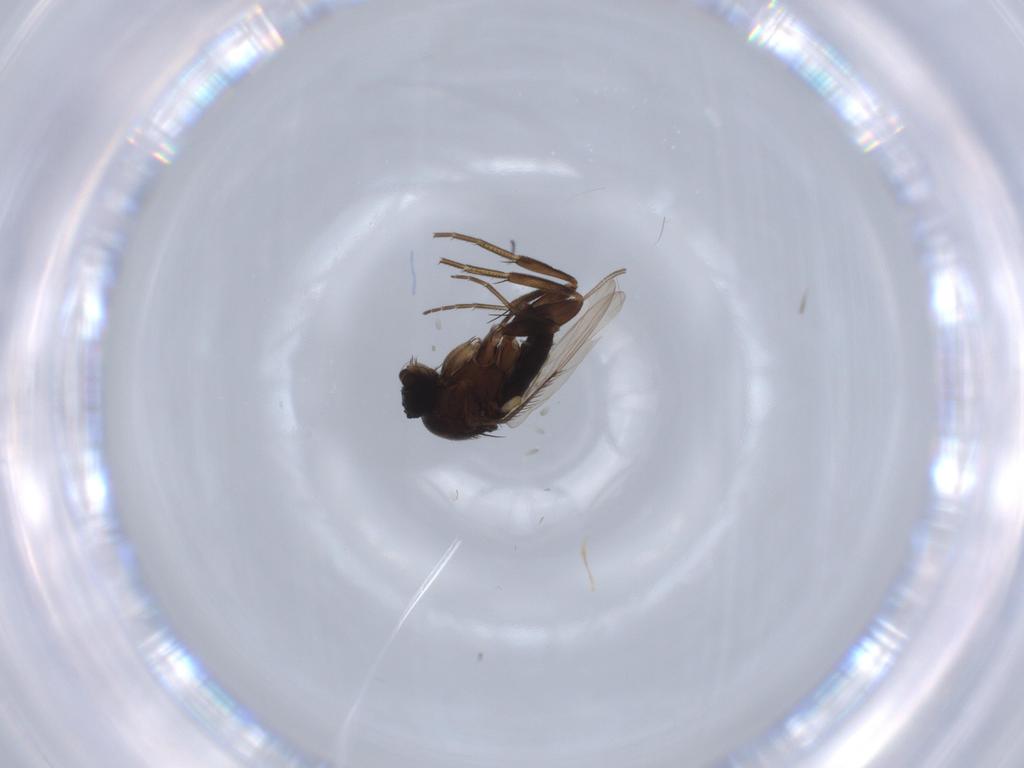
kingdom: Animalia
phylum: Arthropoda
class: Insecta
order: Diptera
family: Phoridae
